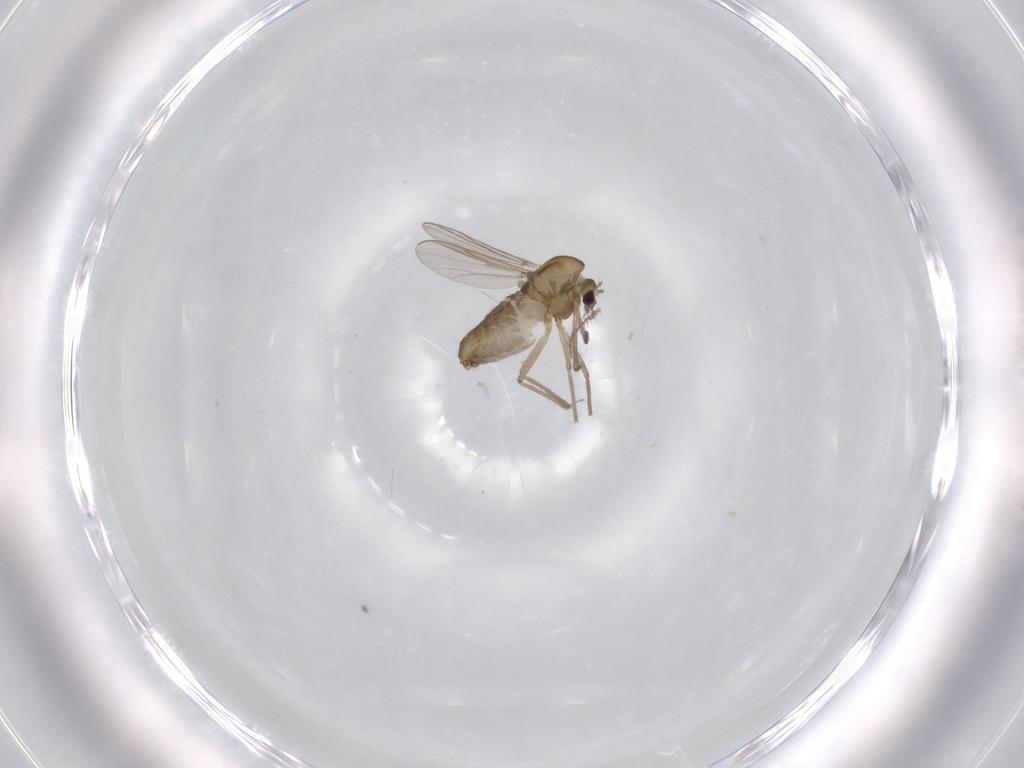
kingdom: Animalia
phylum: Arthropoda
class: Insecta
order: Diptera
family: Chironomidae
